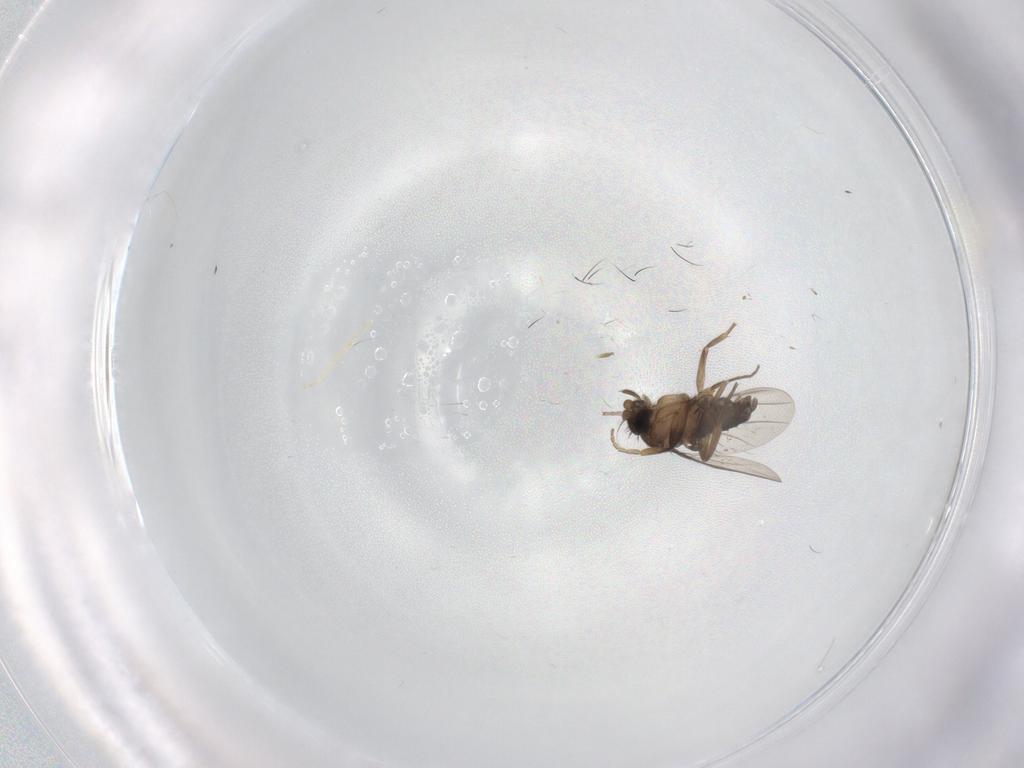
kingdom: Animalia
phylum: Arthropoda
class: Insecta
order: Diptera
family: Phoridae
